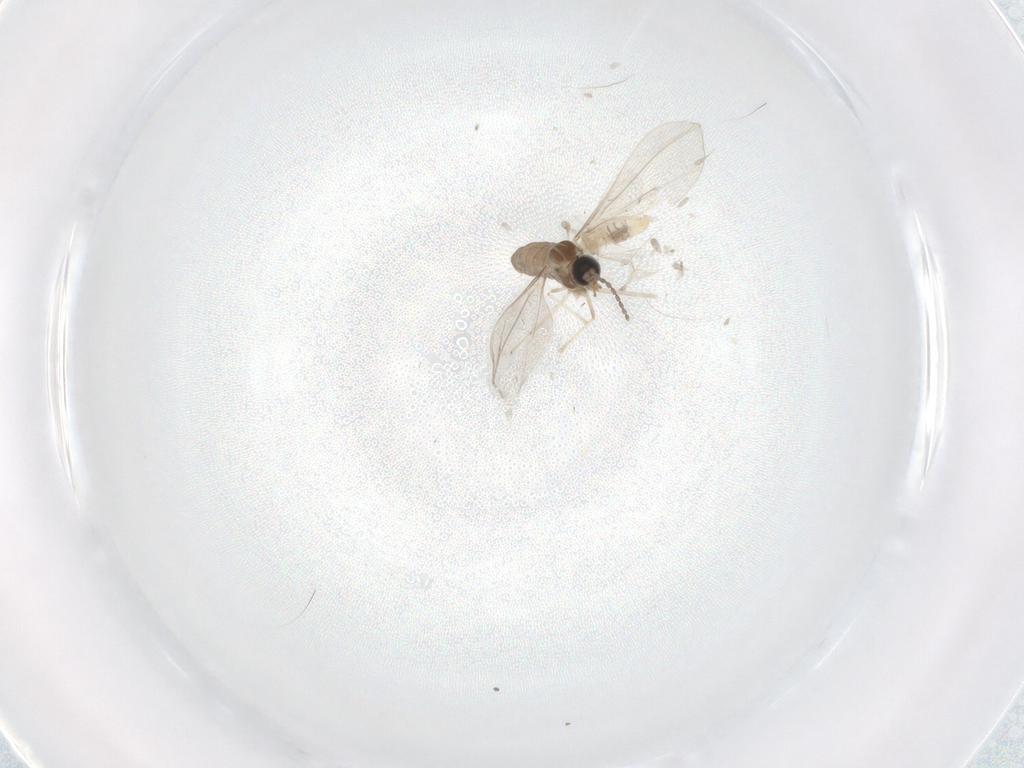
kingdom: Animalia
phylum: Arthropoda
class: Insecta
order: Diptera
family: Cecidomyiidae
